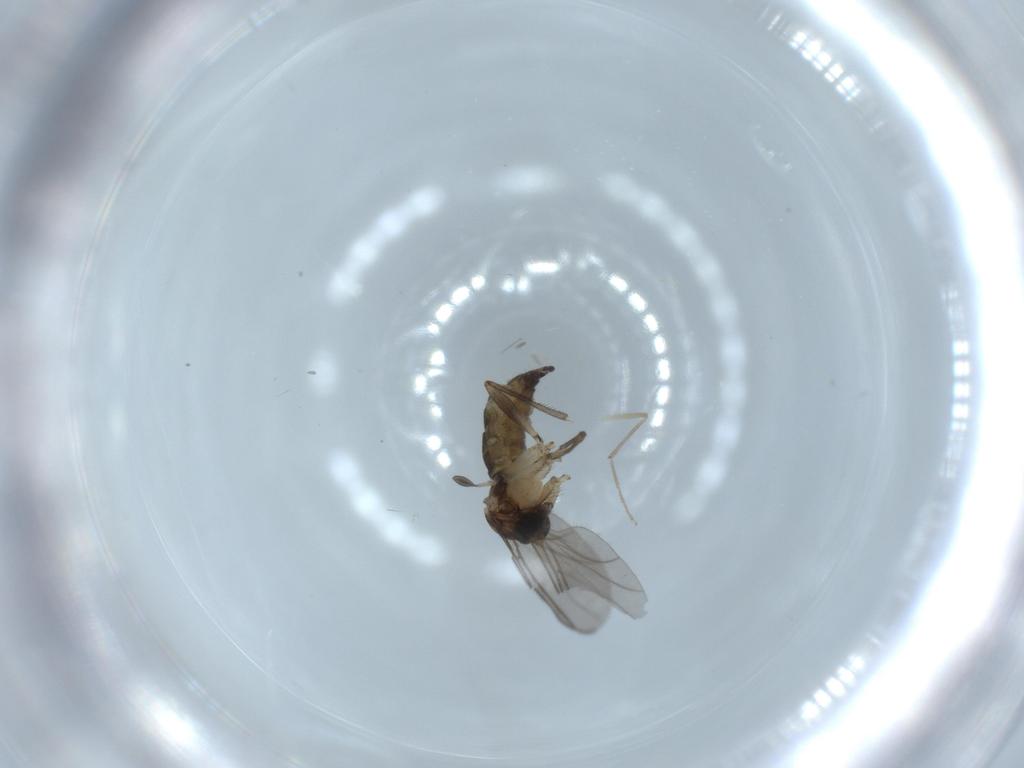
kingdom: Animalia
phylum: Arthropoda
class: Insecta
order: Diptera
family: Sciaridae
